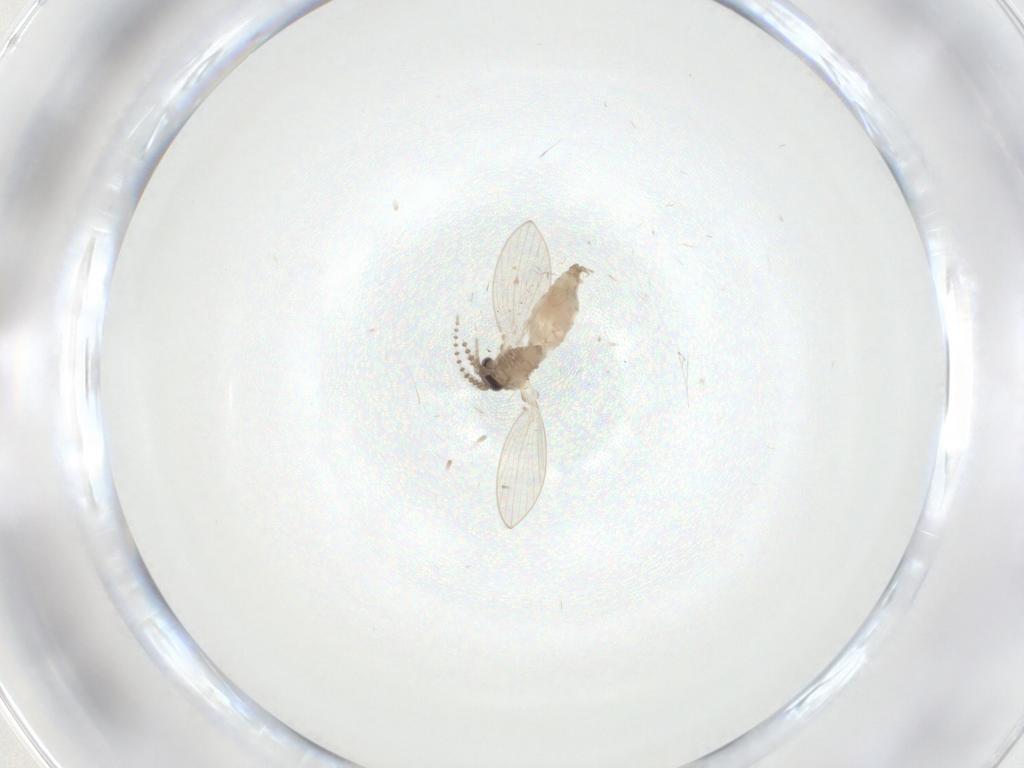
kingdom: Animalia
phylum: Arthropoda
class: Insecta
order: Diptera
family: Psychodidae
